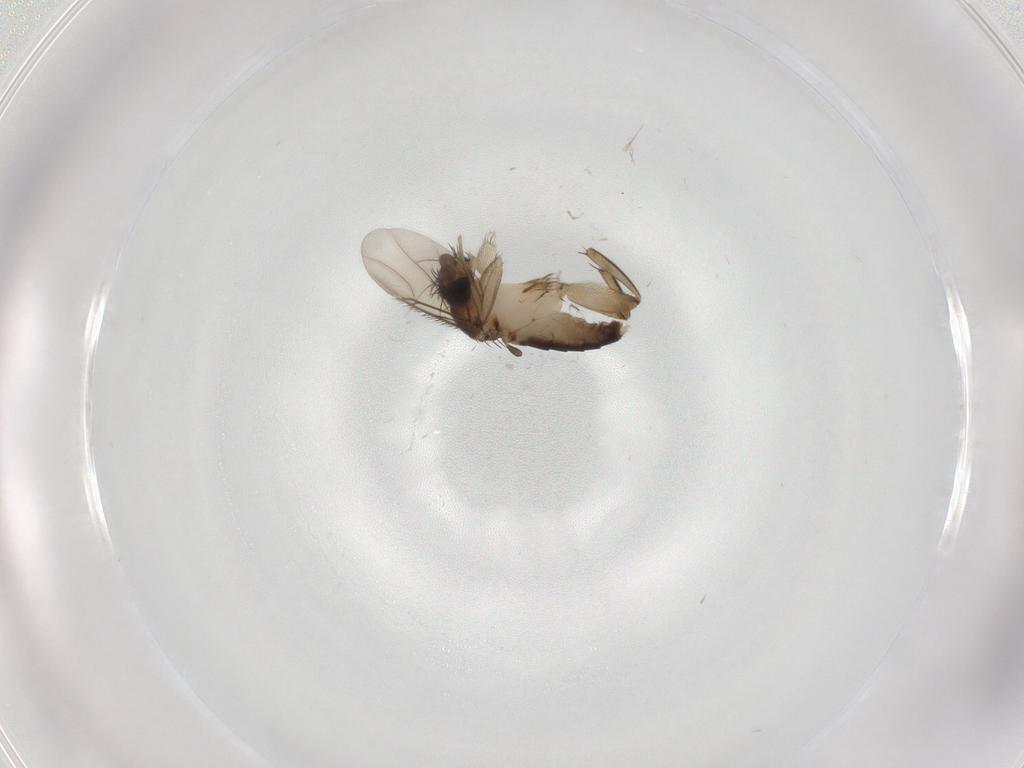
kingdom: Animalia
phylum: Arthropoda
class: Insecta
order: Diptera
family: Phoridae
